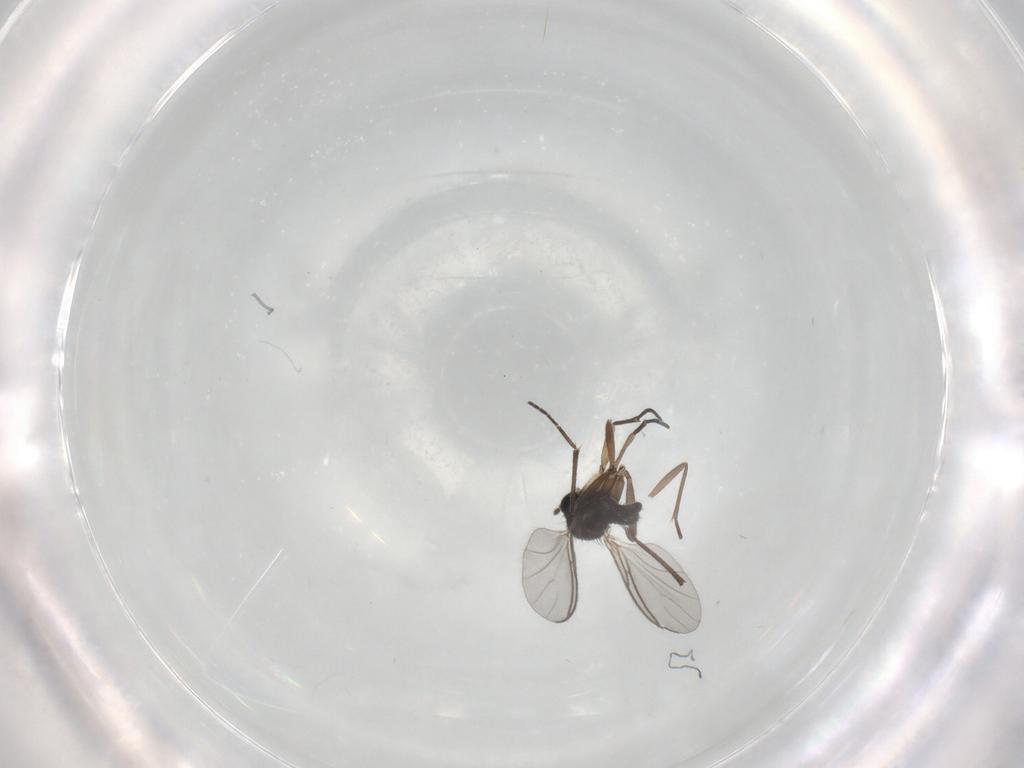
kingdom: Animalia
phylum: Arthropoda
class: Insecta
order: Diptera
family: Sciaridae
